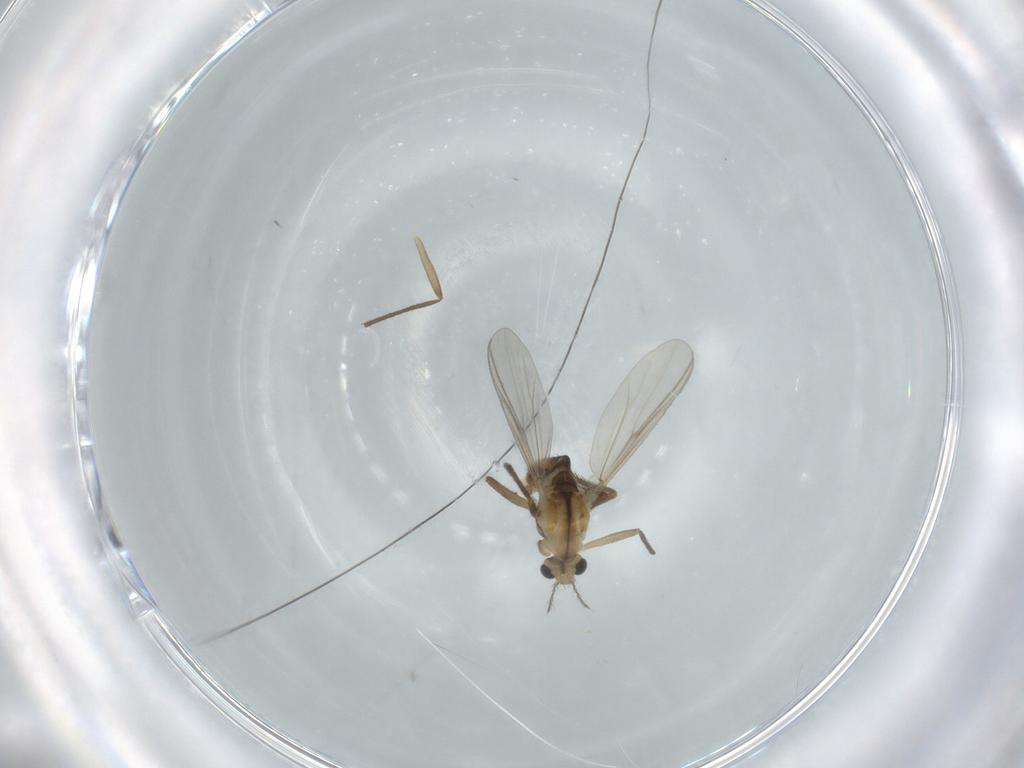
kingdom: Animalia
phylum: Arthropoda
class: Insecta
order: Diptera
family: Chironomidae
